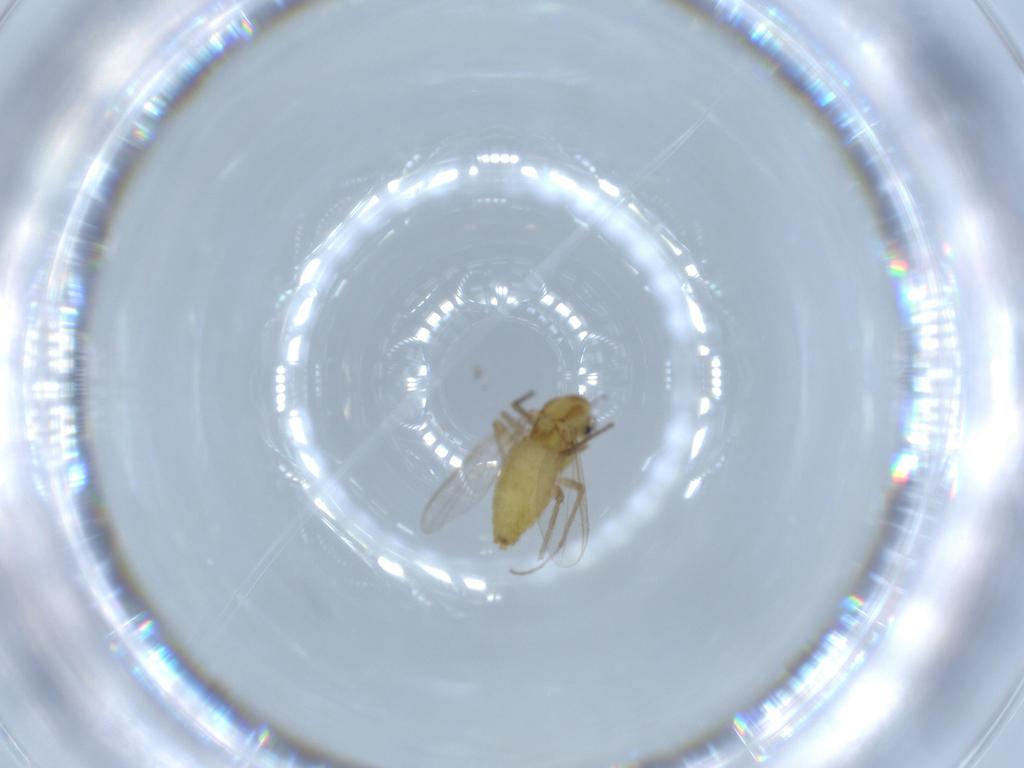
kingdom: Animalia
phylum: Arthropoda
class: Insecta
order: Diptera
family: Chironomidae
